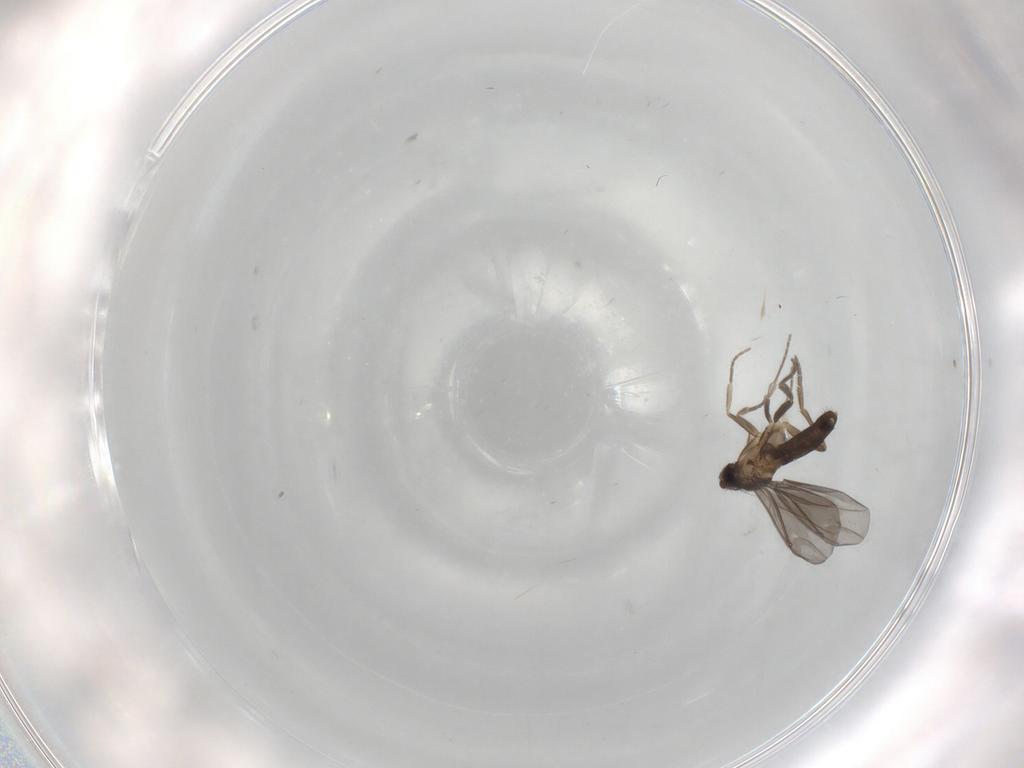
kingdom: Animalia
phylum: Arthropoda
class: Insecta
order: Diptera
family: Phoridae
